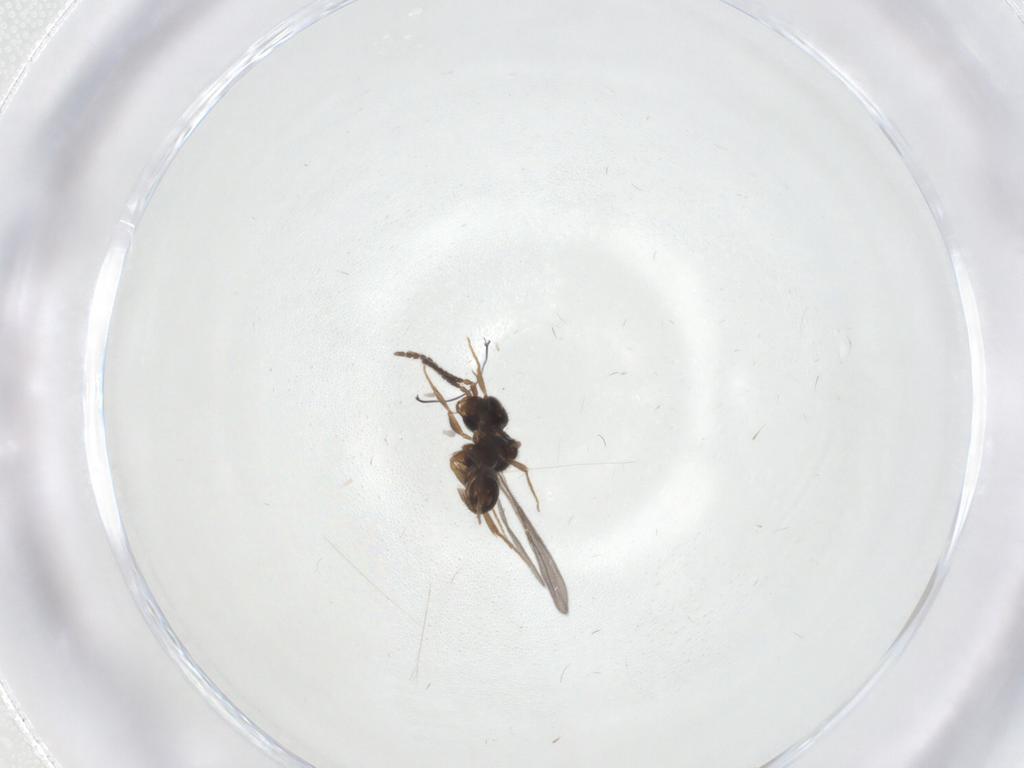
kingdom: Animalia
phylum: Arthropoda
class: Insecta
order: Hymenoptera
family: Bethylidae
